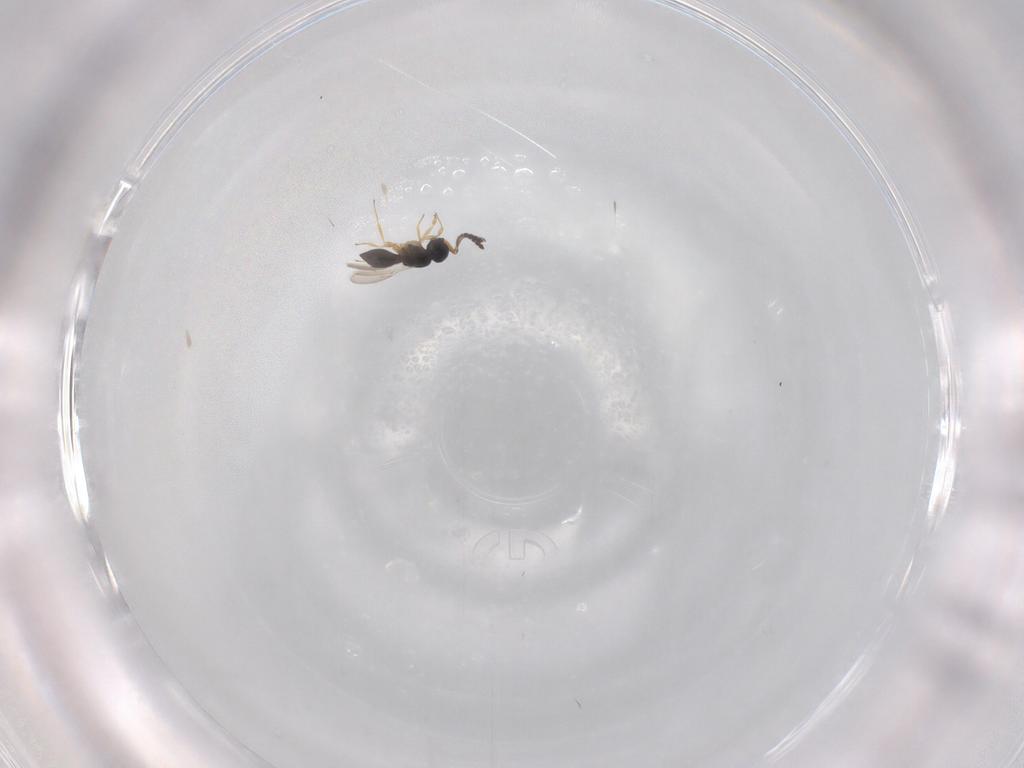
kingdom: Animalia
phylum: Arthropoda
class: Insecta
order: Hymenoptera
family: Scelionidae
